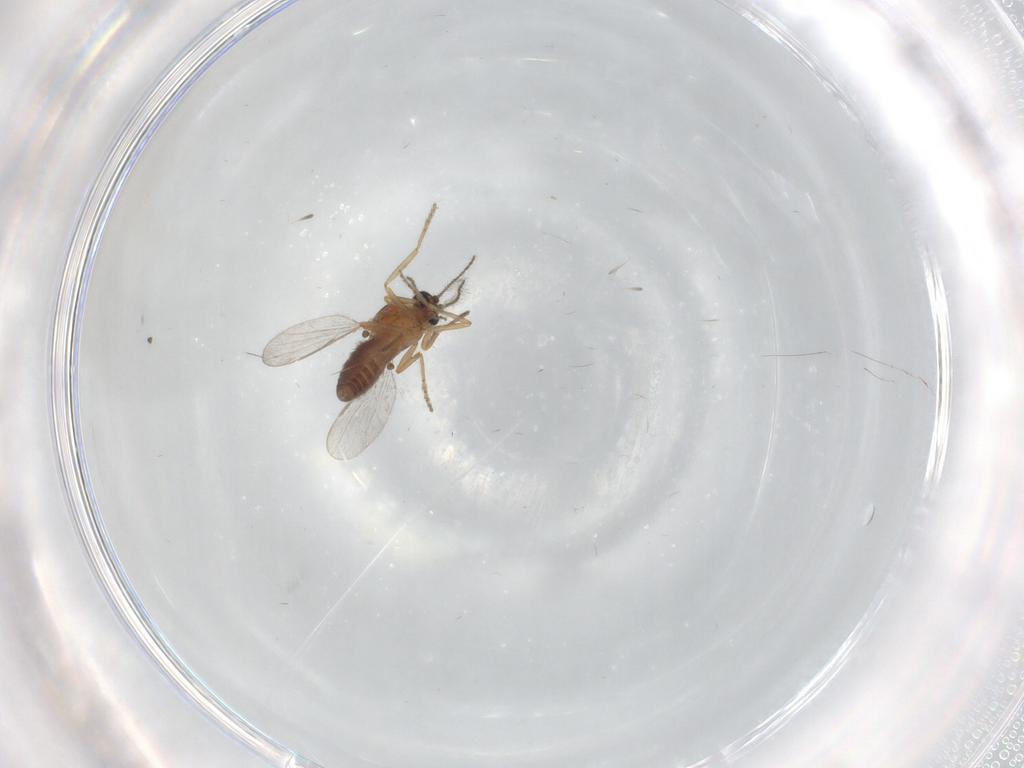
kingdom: Animalia
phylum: Arthropoda
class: Insecta
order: Diptera
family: Ceratopogonidae
